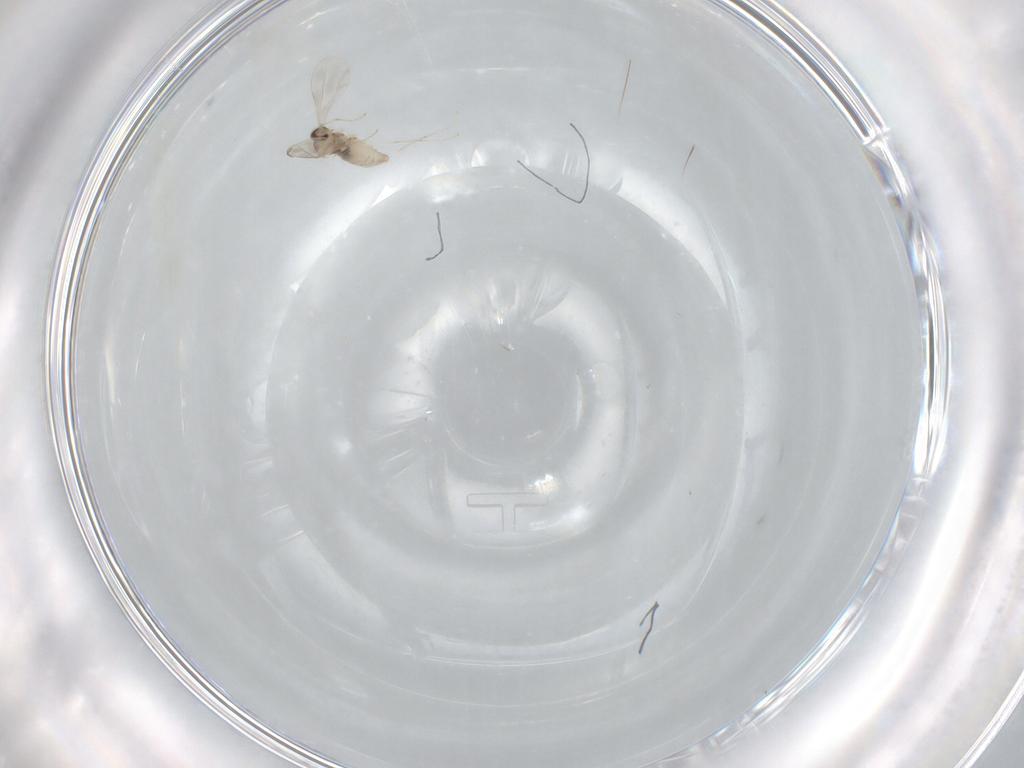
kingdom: Animalia
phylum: Arthropoda
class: Insecta
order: Diptera
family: Cecidomyiidae
